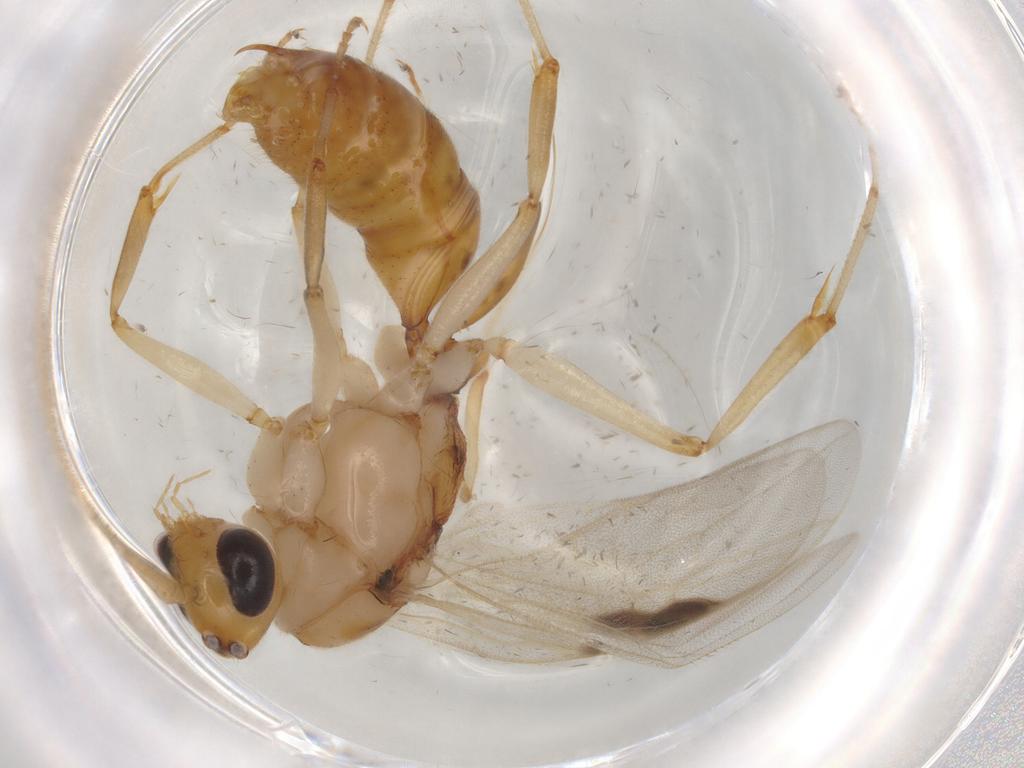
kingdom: Animalia
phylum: Arthropoda
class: Insecta
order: Hymenoptera
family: Formicidae
